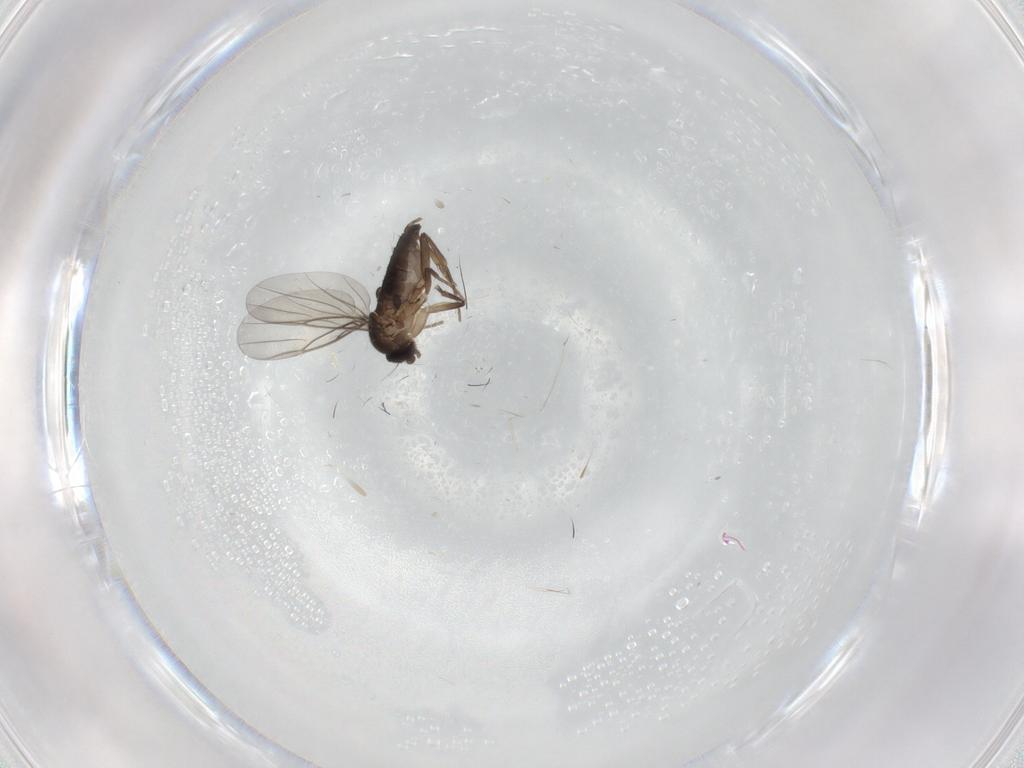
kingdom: Animalia
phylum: Arthropoda
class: Insecta
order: Diptera
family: Phoridae
